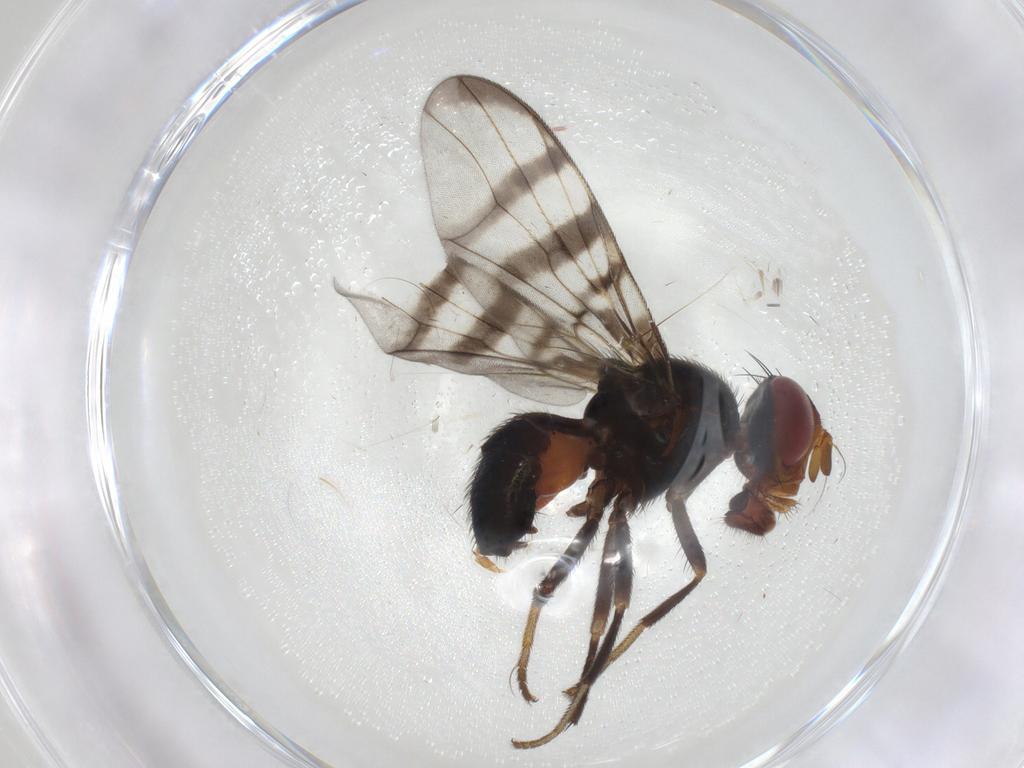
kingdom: Animalia
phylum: Arthropoda
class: Insecta
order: Diptera
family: Platystomatidae
